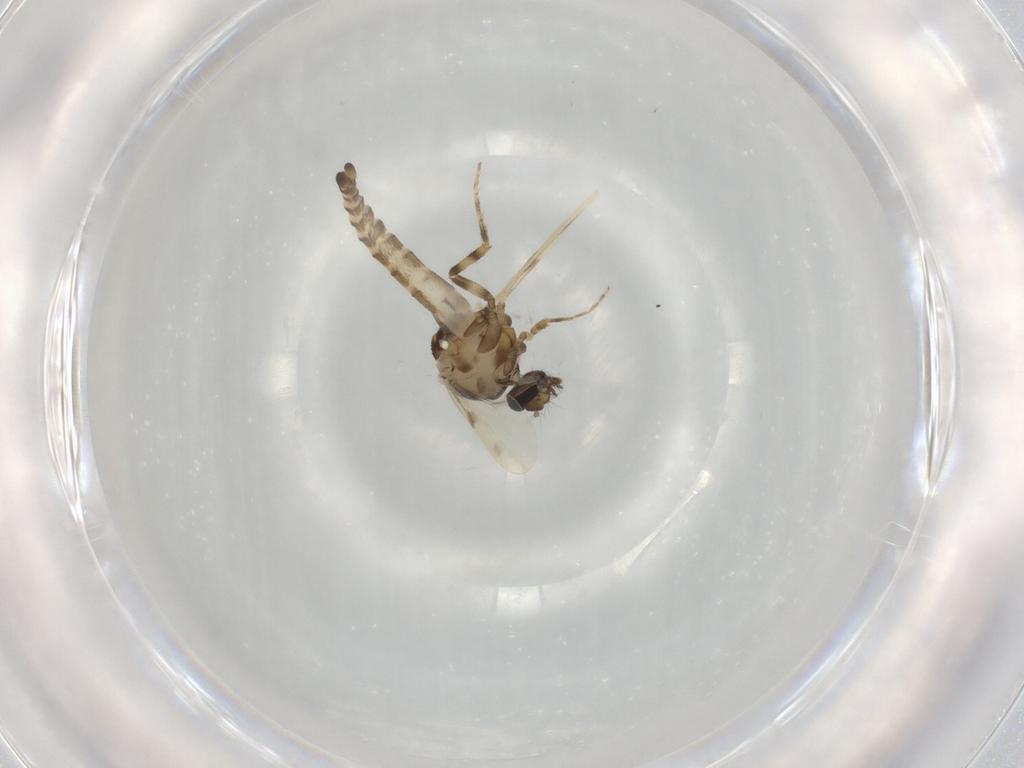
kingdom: Animalia
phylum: Arthropoda
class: Insecta
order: Diptera
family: Ceratopogonidae
